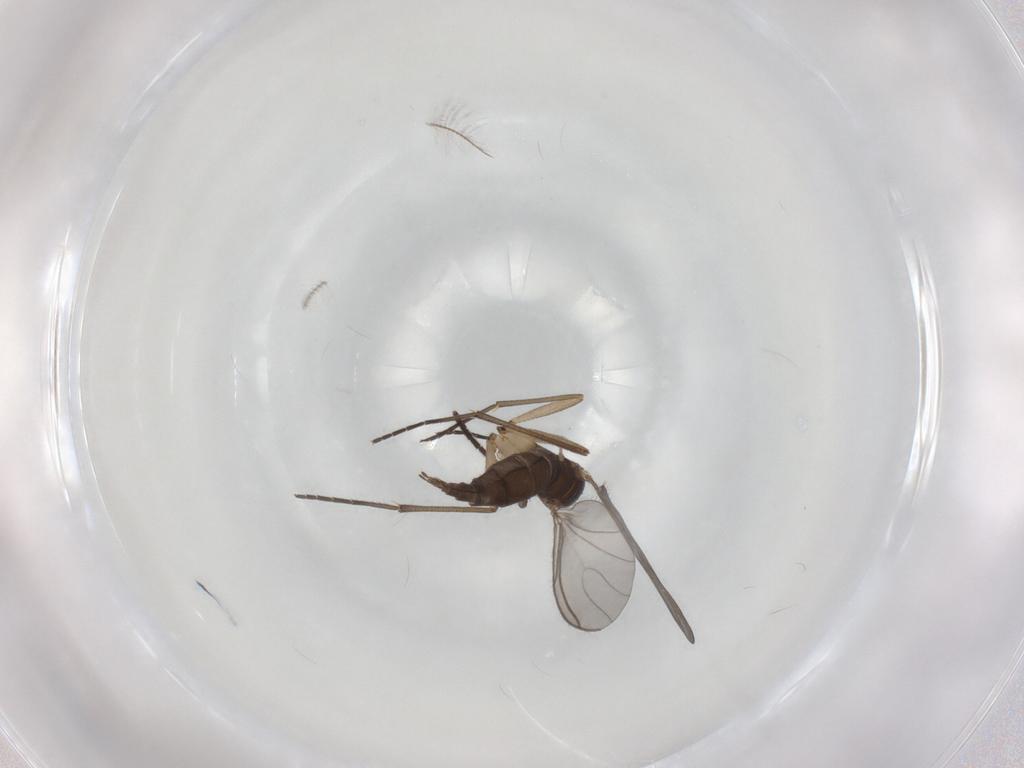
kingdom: Animalia
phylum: Arthropoda
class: Insecta
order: Diptera
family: Sciaridae
